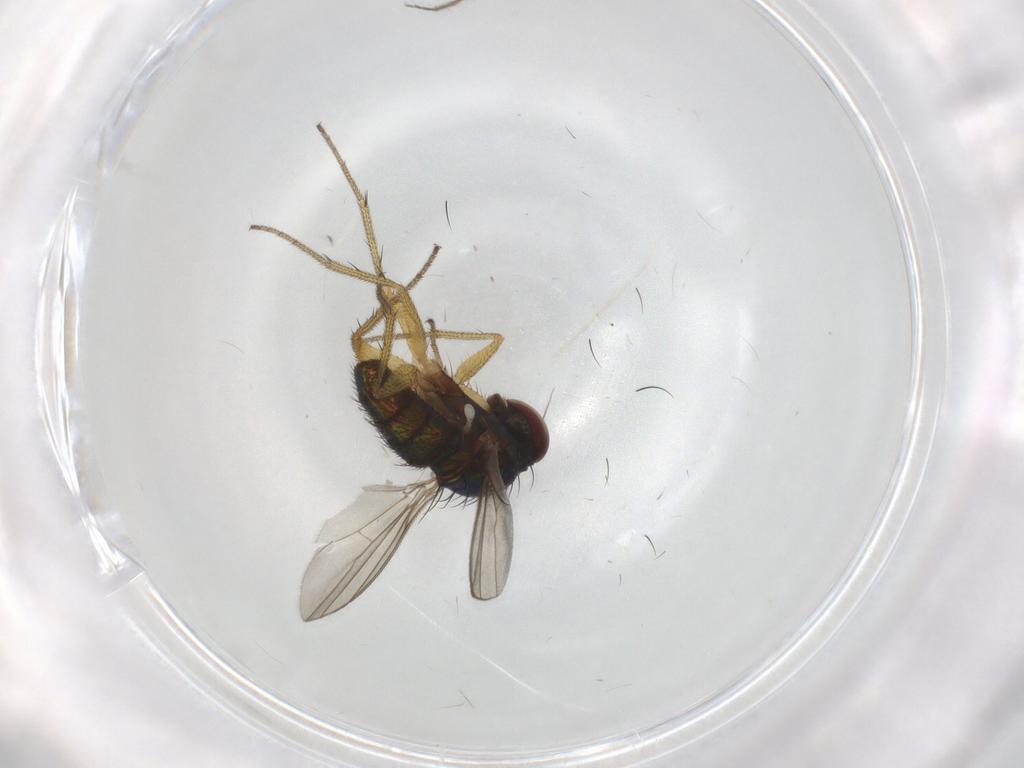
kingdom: Animalia
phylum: Arthropoda
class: Insecta
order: Diptera
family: Dolichopodidae
